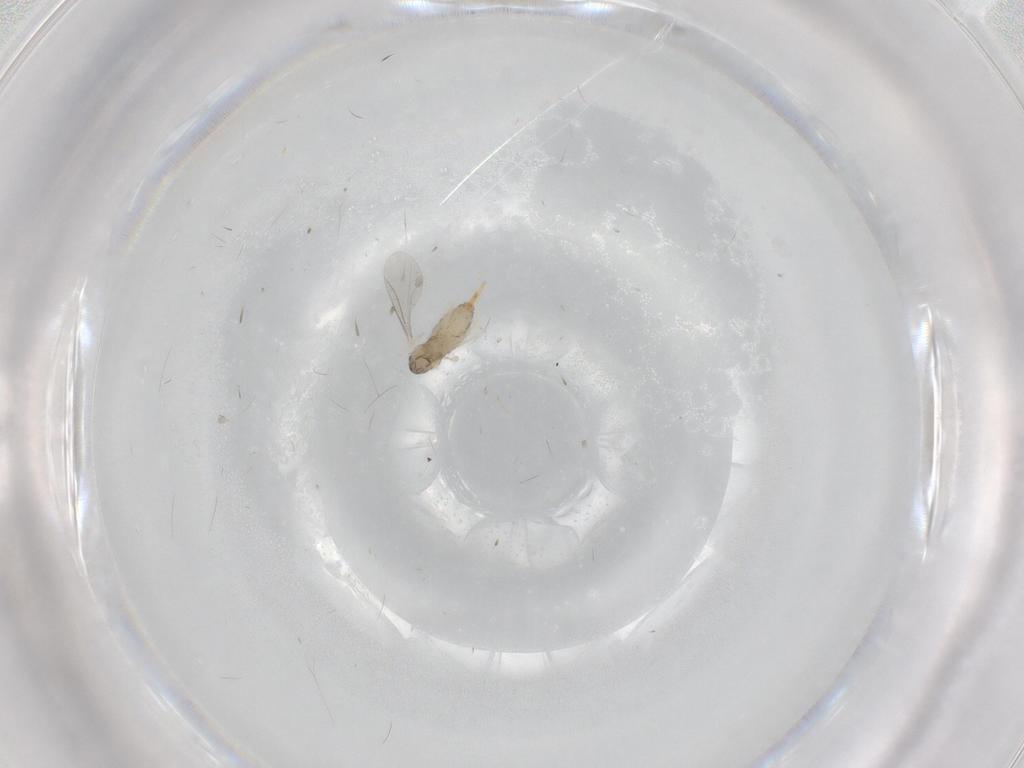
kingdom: Animalia
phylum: Arthropoda
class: Insecta
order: Diptera
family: Cecidomyiidae
